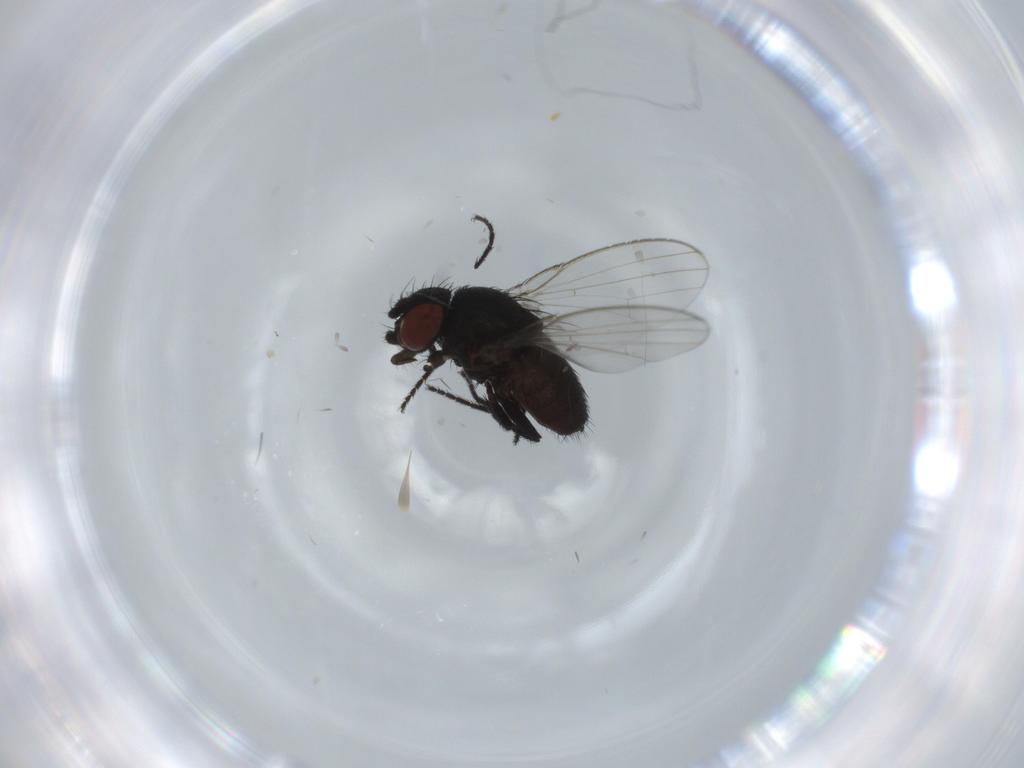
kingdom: Animalia
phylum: Arthropoda
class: Insecta
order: Diptera
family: Milichiidae
